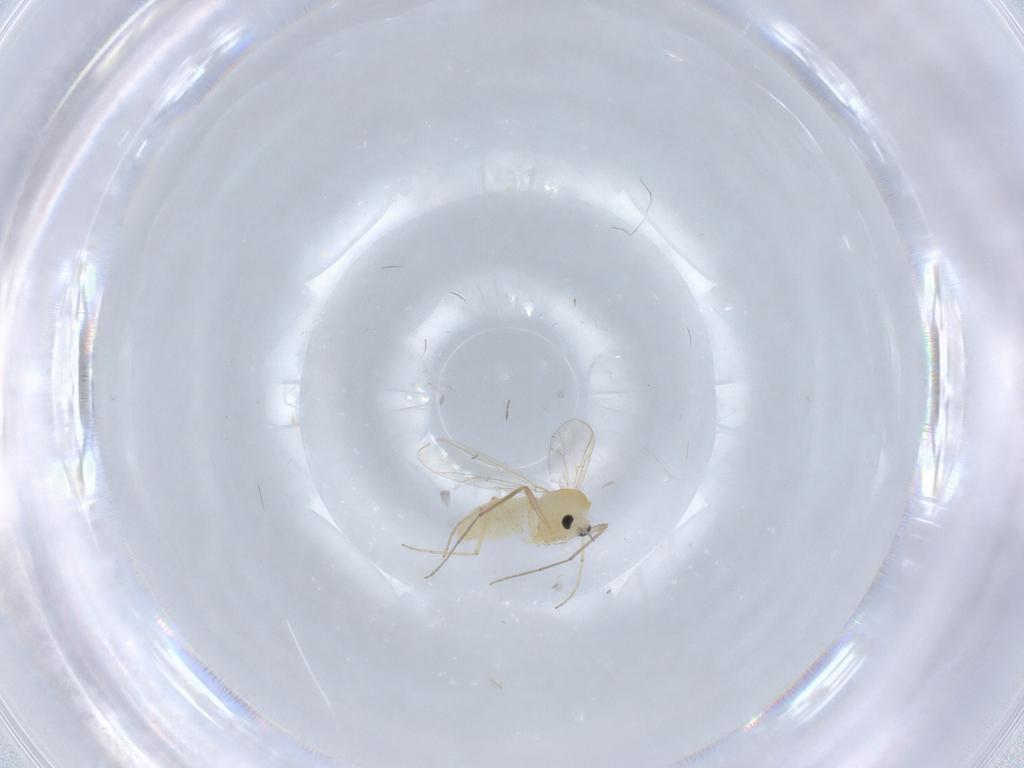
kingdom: Animalia
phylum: Arthropoda
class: Insecta
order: Diptera
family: Chironomidae
